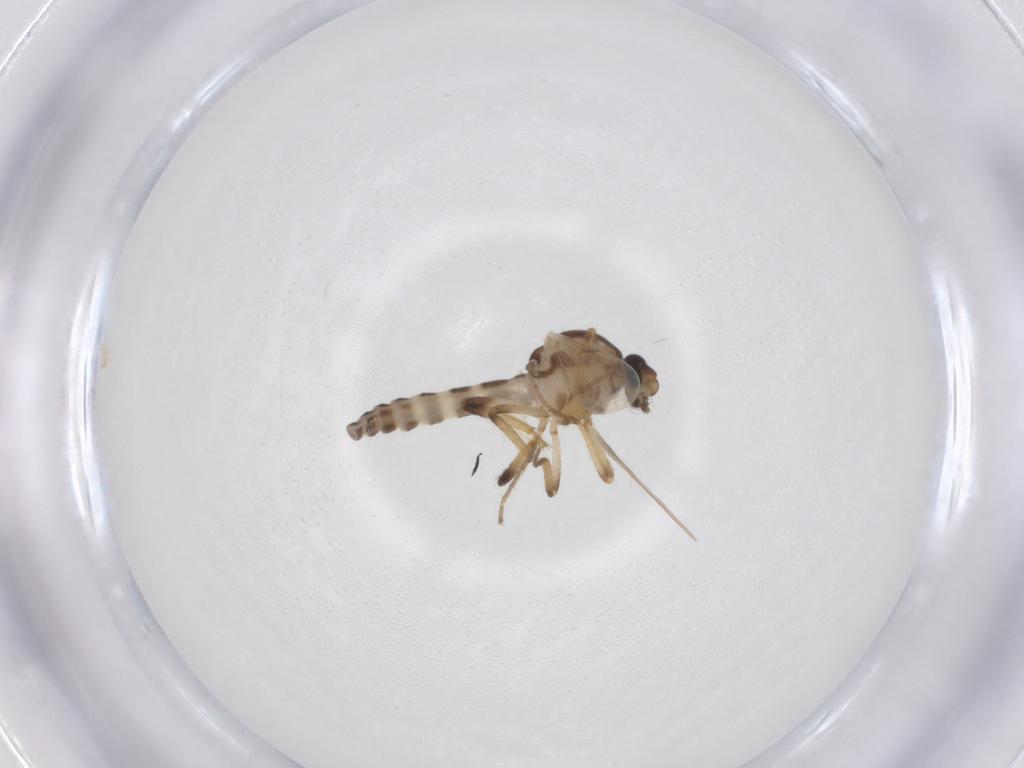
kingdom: Animalia
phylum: Arthropoda
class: Insecta
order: Diptera
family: Ceratopogonidae
